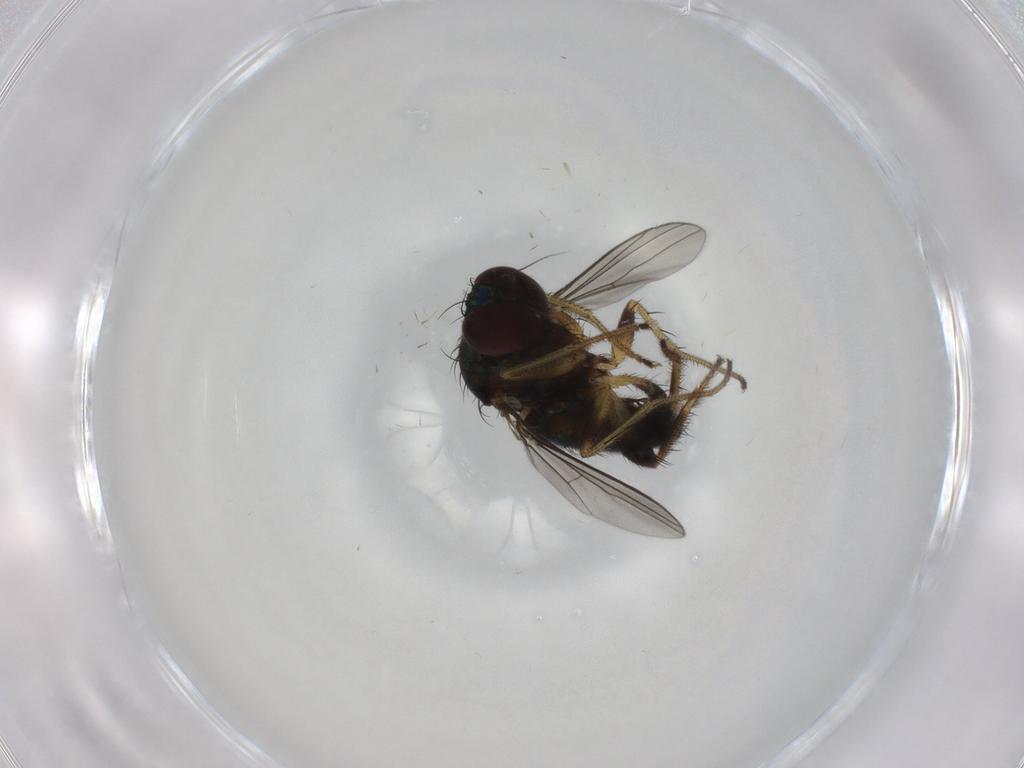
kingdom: Animalia
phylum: Arthropoda
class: Insecta
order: Diptera
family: Dolichopodidae
